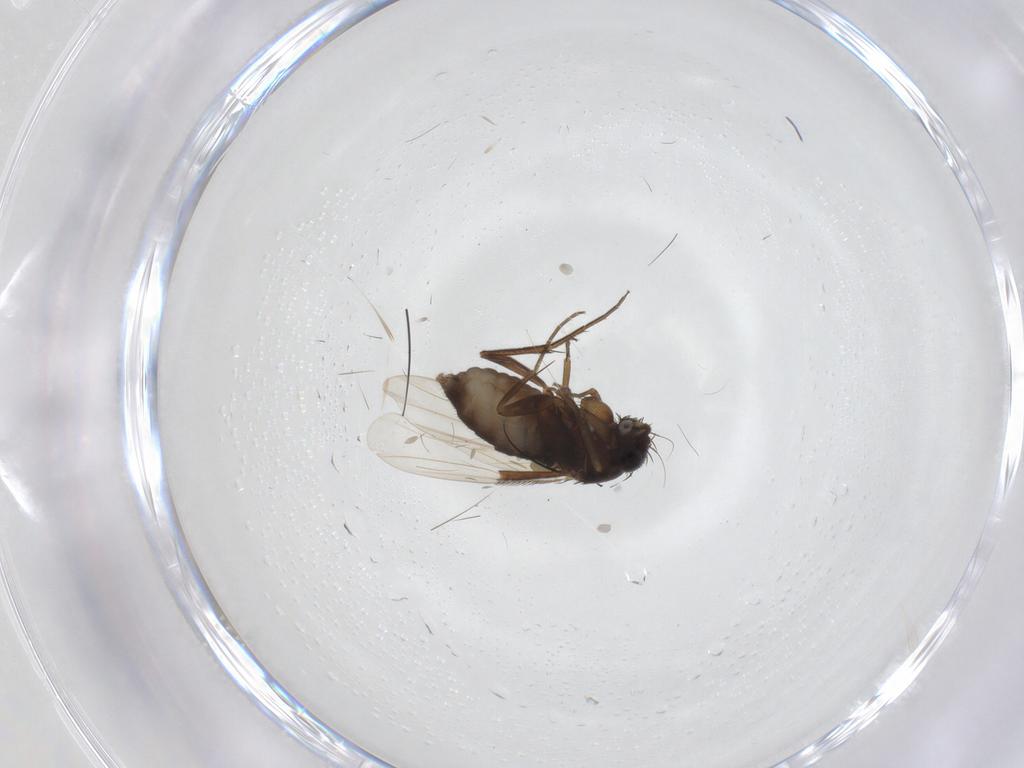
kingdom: Animalia
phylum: Arthropoda
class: Insecta
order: Diptera
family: Phoridae
